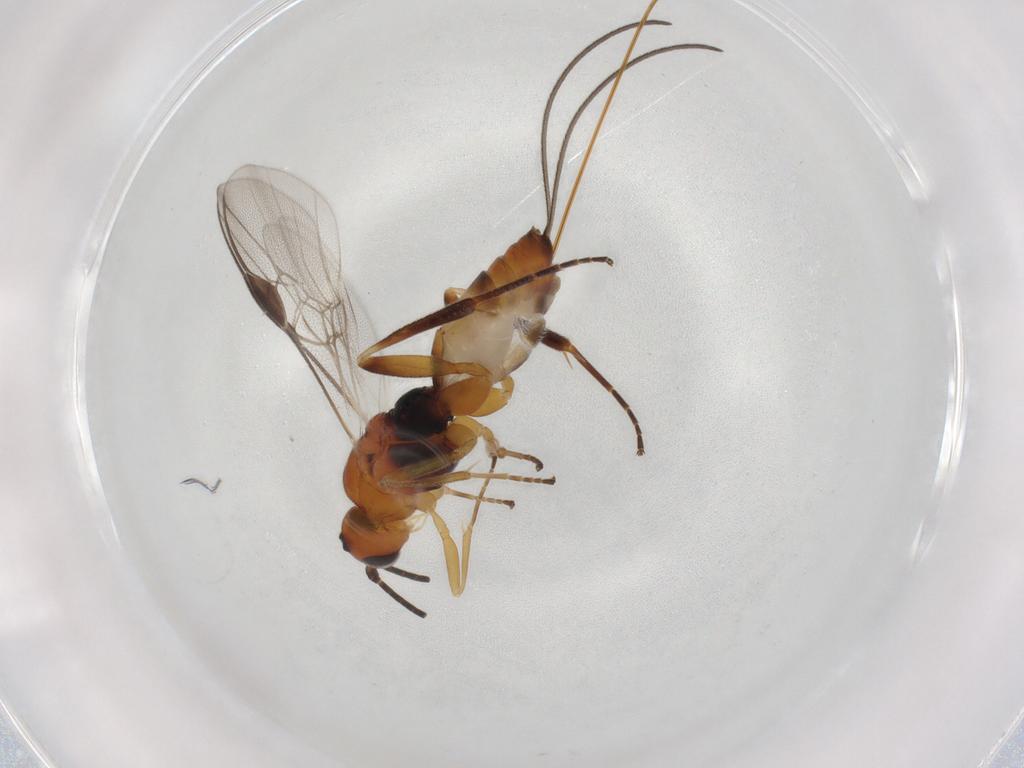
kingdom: Animalia
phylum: Arthropoda
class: Insecta
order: Hymenoptera
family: Braconidae
